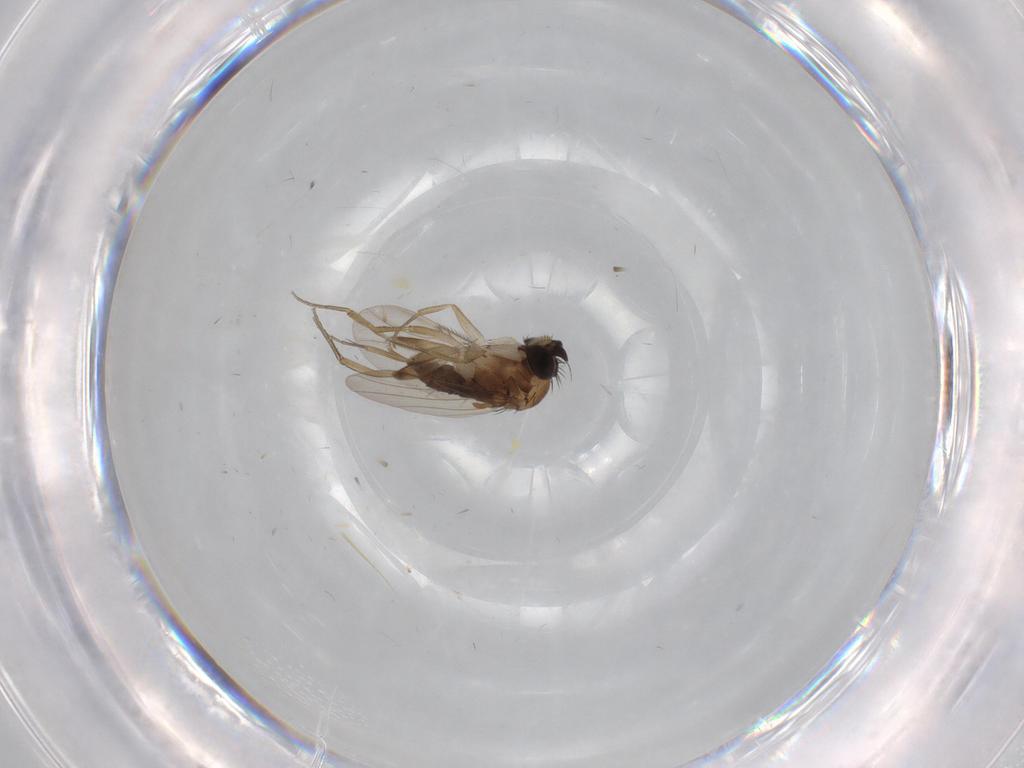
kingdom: Animalia
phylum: Arthropoda
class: Insecta
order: Diptera
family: Phoridae
